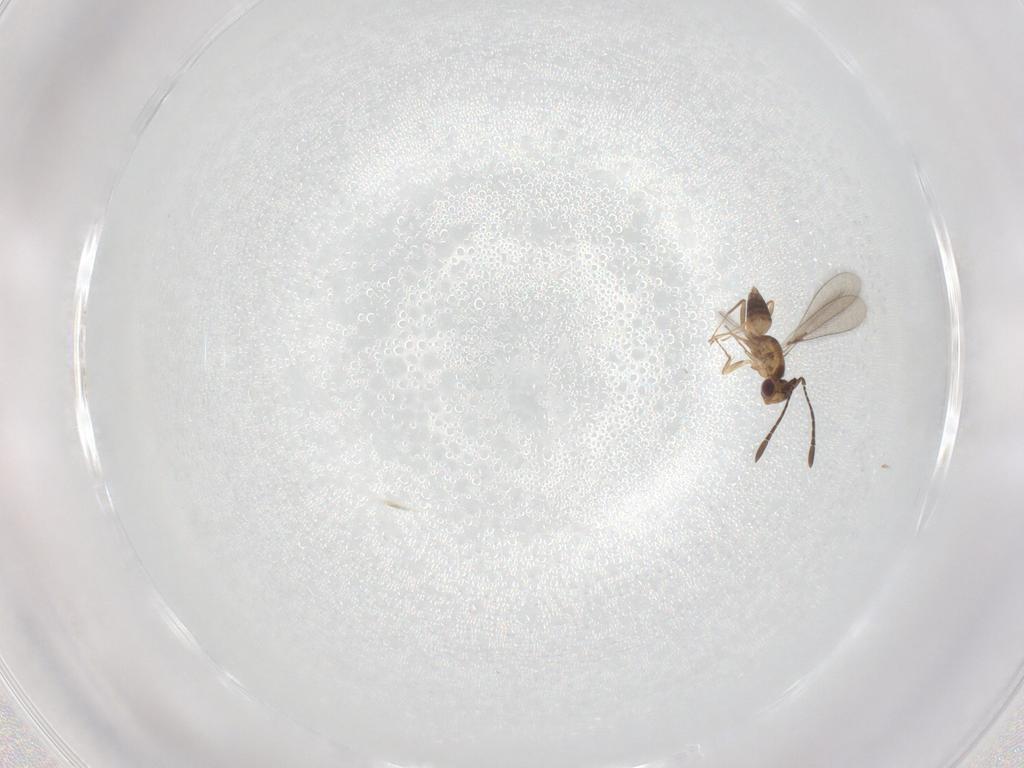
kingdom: Animalia
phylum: Arthropoda
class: Insecta
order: Hymenoptera
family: Mymaridae
